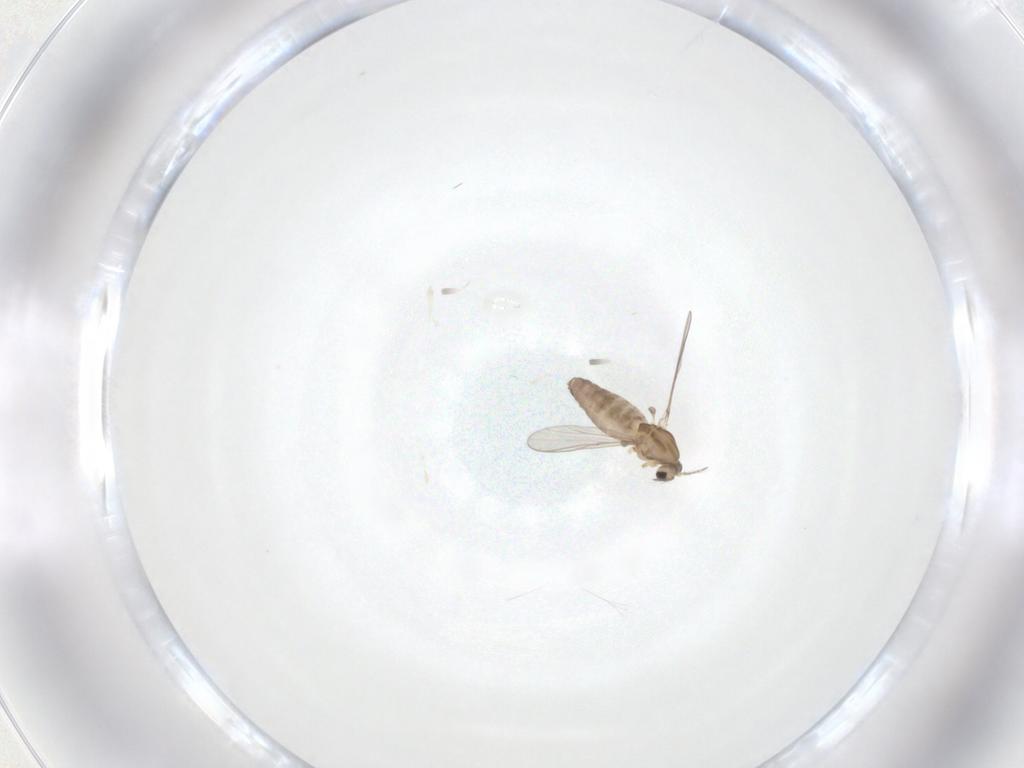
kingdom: Animalia
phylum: Arthropoda
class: Insecta
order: Diptera
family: Chironomidae
